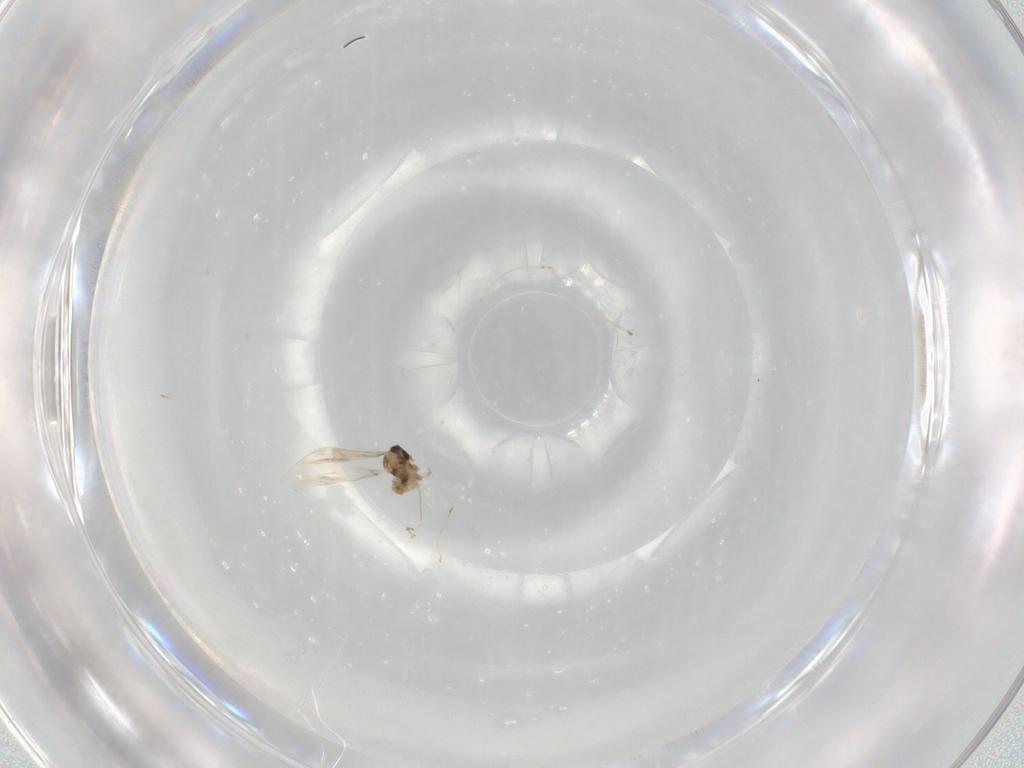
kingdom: Animalia
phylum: Arthropoda
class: Insecta
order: Diptera
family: Cecidomyiidae
